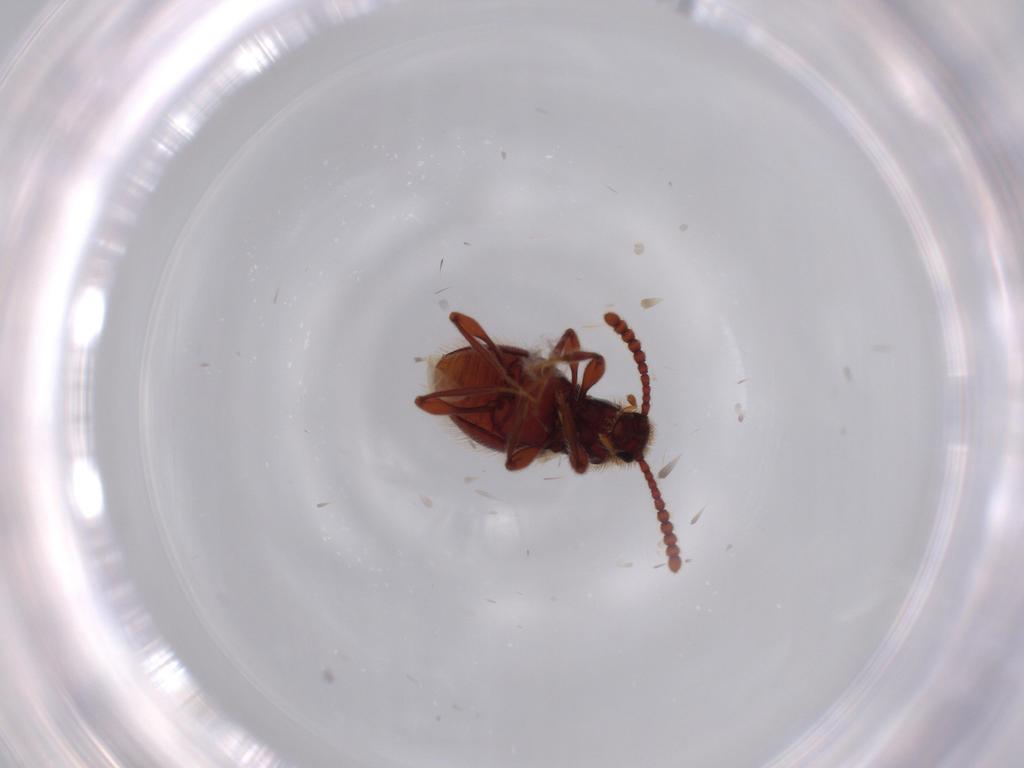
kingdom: Animalia
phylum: Arthropoda
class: Insecta
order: Coleoptera
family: Staphylinidae
